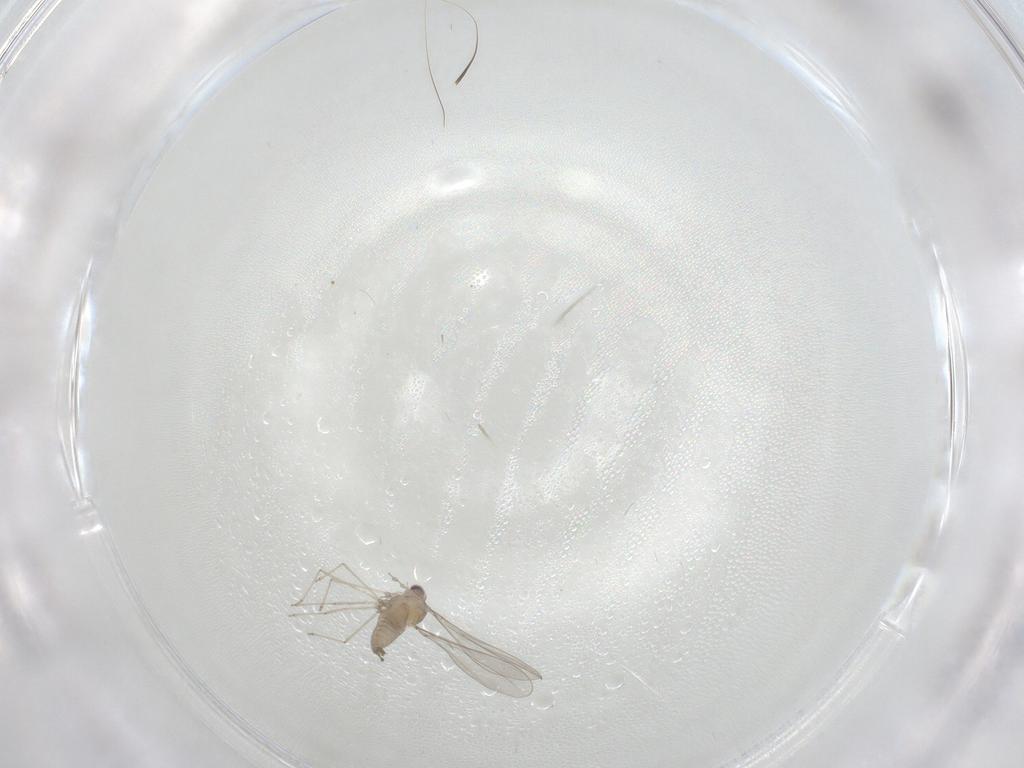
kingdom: Animalia
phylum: Arthropoda
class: Insecta
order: Diptera
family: Cecidomyiidae
